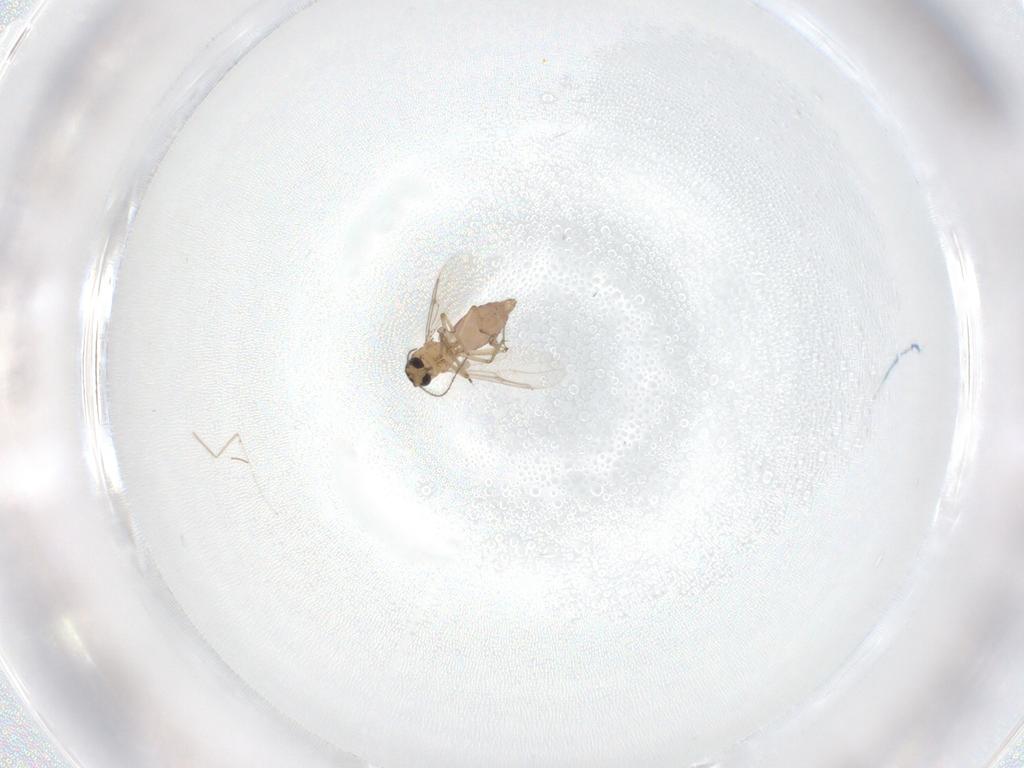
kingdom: Animalia
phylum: Arthropoda
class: Insecta
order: Diptera
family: Ceratopogonidae
